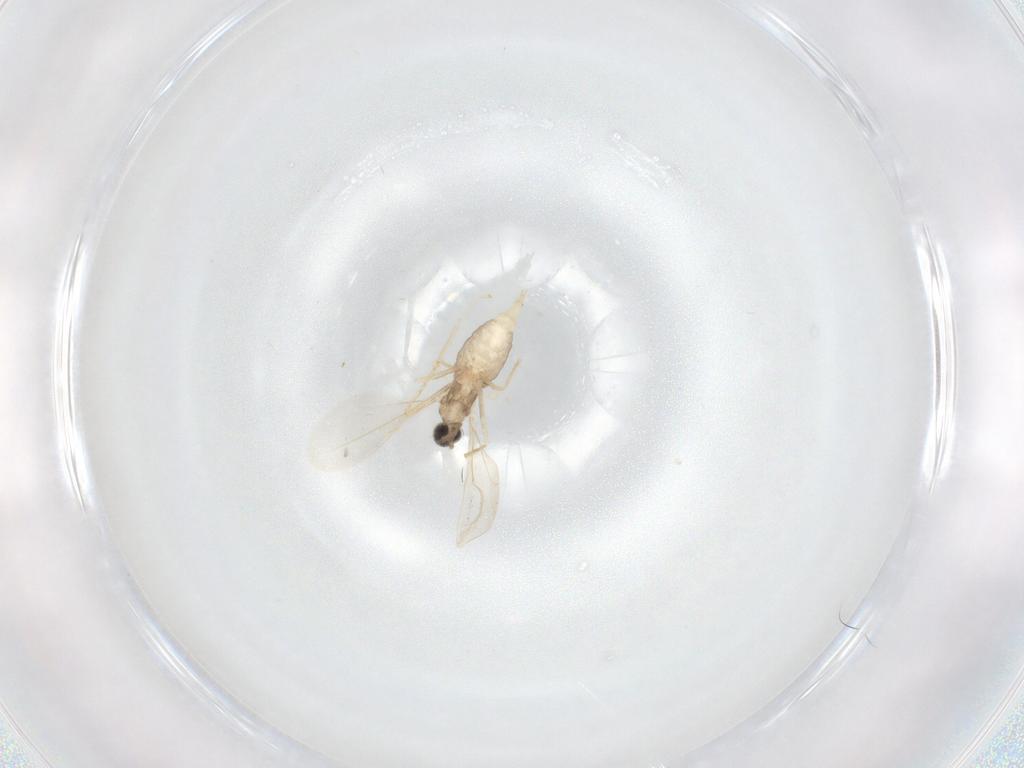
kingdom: Animalia
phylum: Arthropoda
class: Insecta
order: Diptera
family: Cecidomyiidae
